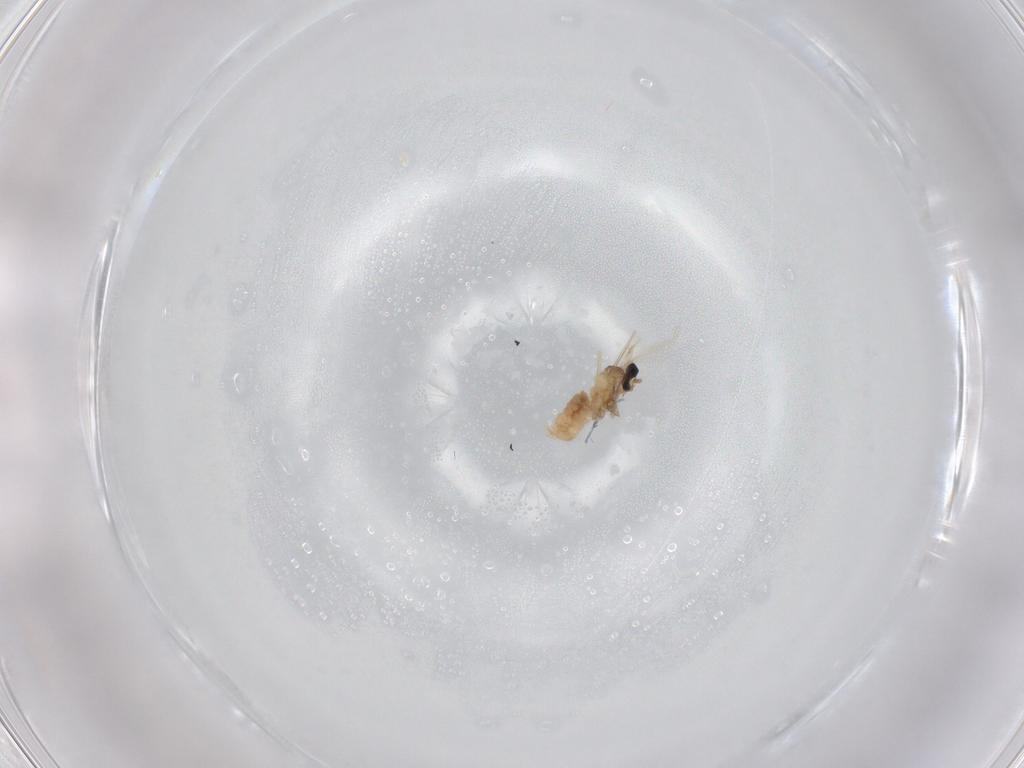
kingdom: Animalia
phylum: Arthropoda
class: Insecta
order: Diptera
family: Cecidomyiidae
